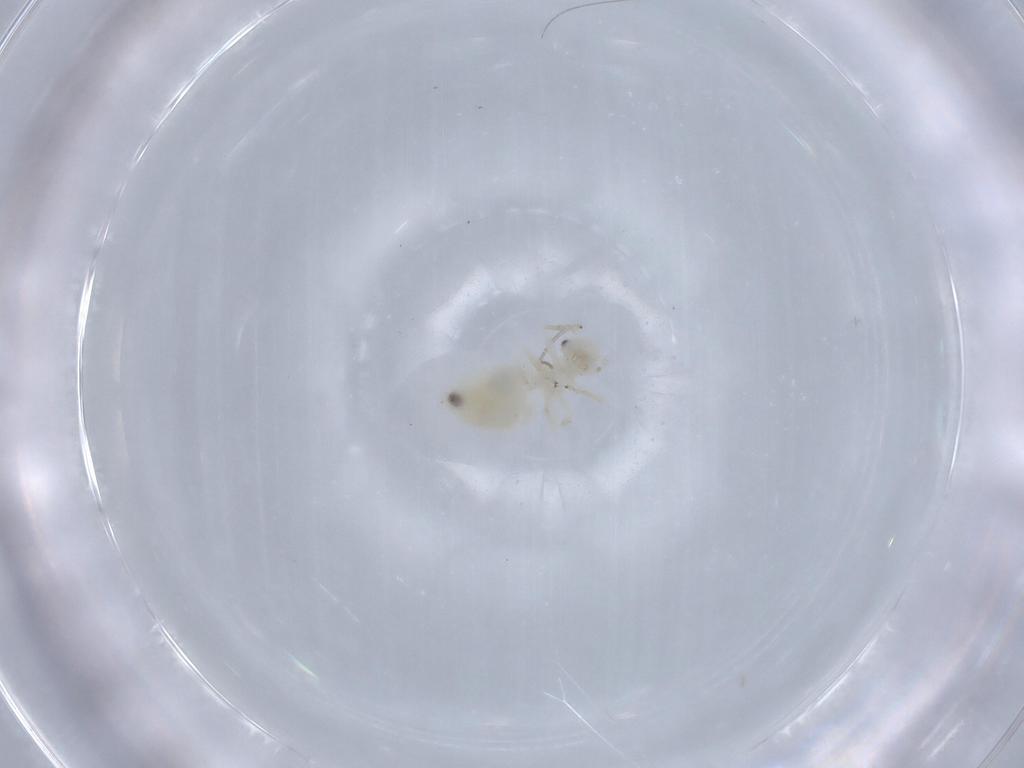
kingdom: Animalia
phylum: Arthropoda
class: Insecta
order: Psocodea
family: Caeciliusidae
